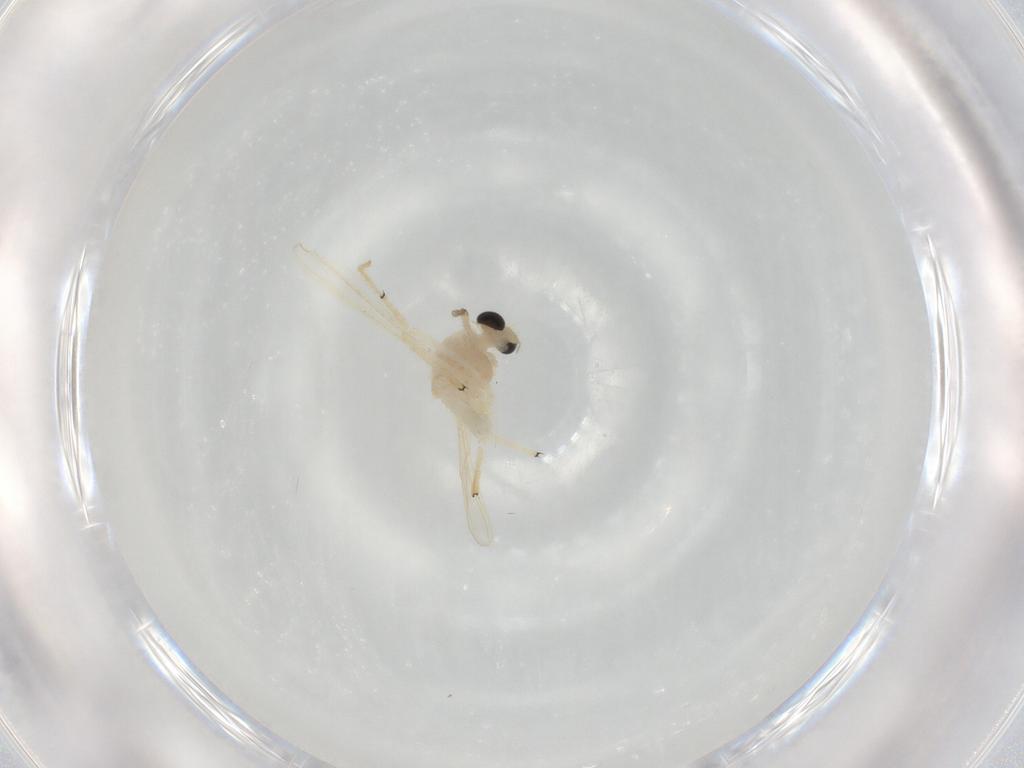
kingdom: Animalia
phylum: Arthropoda
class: Insecta
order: Diptera
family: Chironomidae
